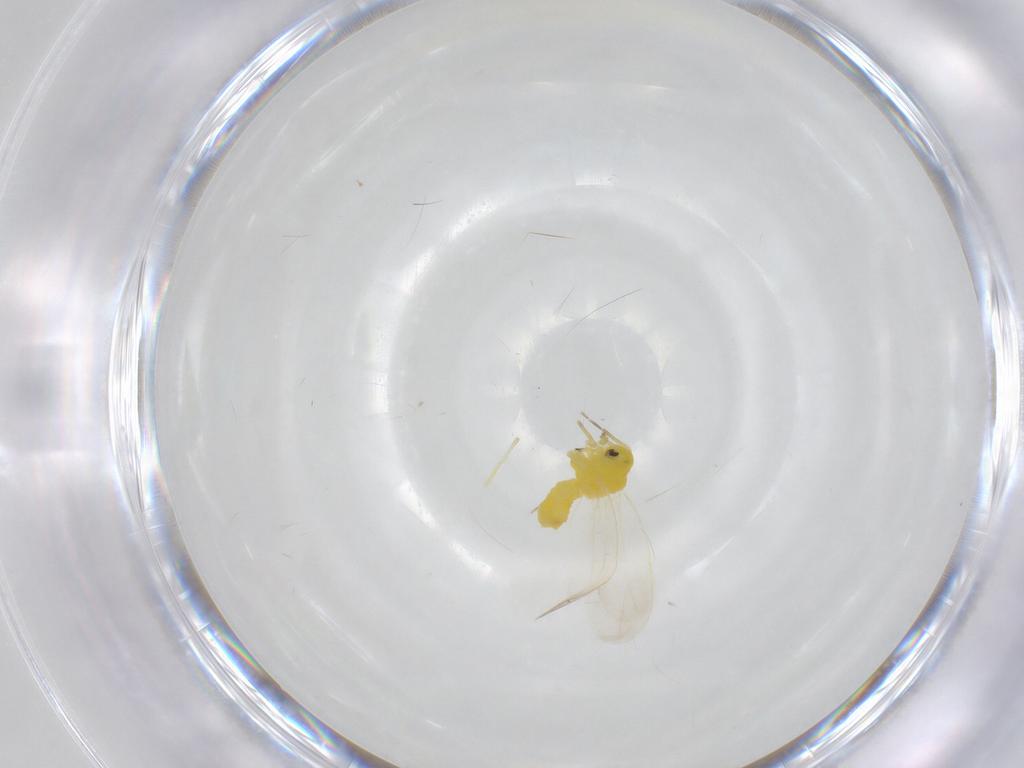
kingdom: Animalia
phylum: Arthropoda
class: Insecta
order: Hemiptera
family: Aleyrodidae
